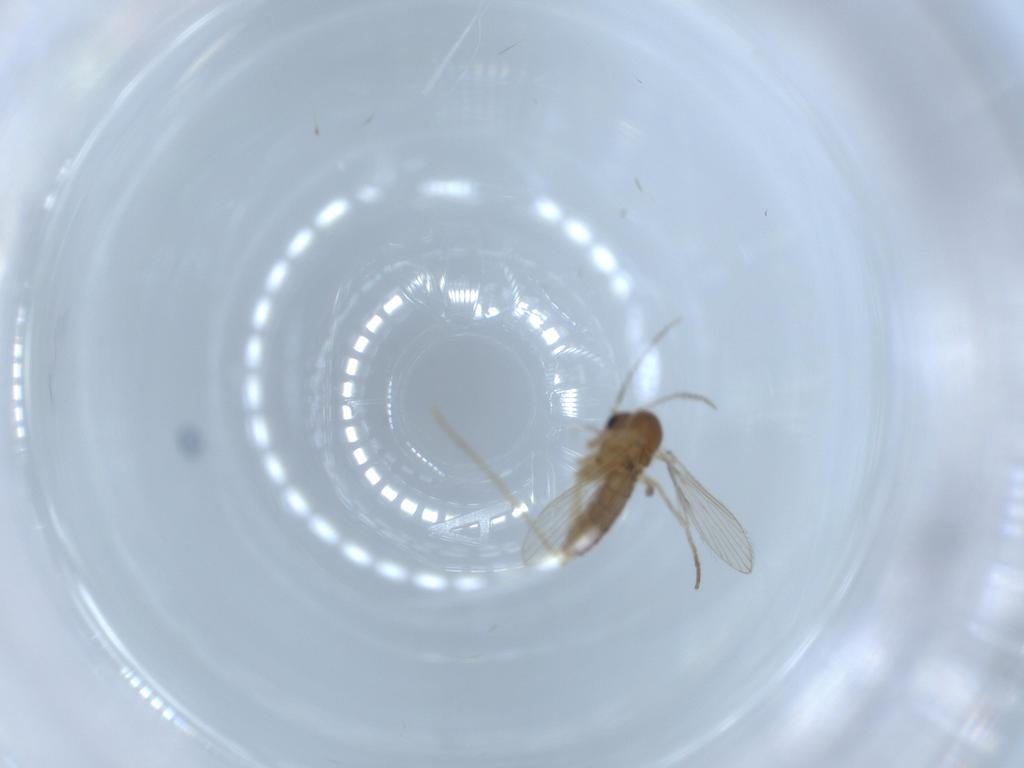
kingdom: Animalia
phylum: Arthropoda
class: Insecta
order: Diptera
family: Psychodidae
